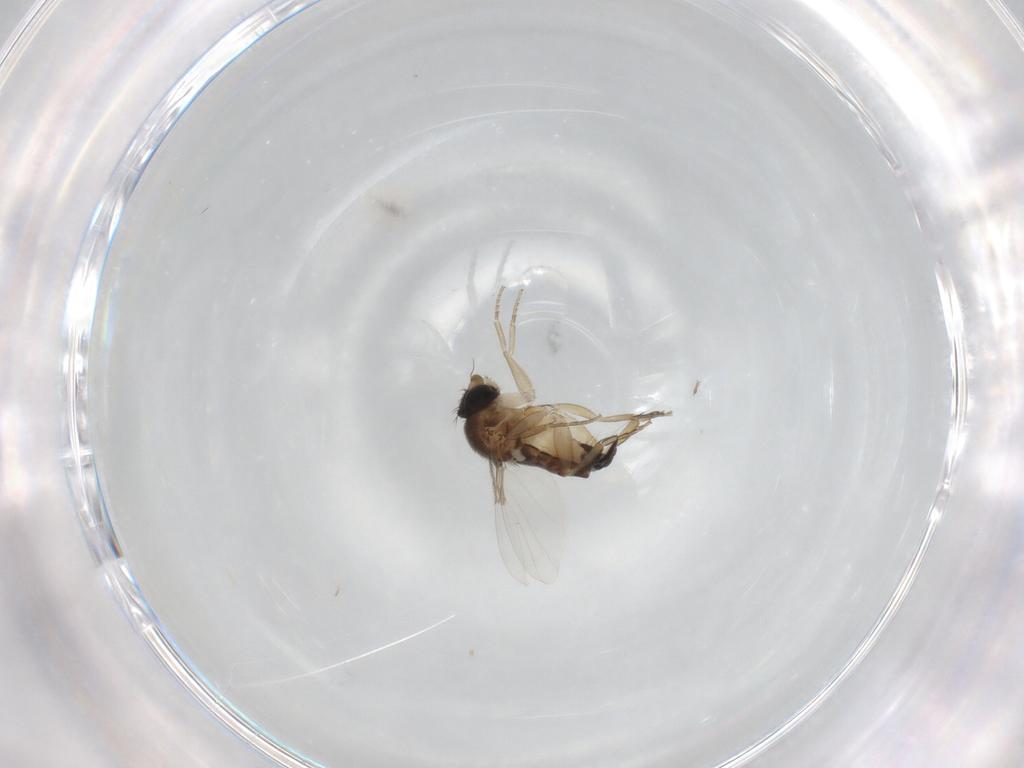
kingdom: Animalia
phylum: Arthropoda
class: Insecta
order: Diptera
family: Phoridae
